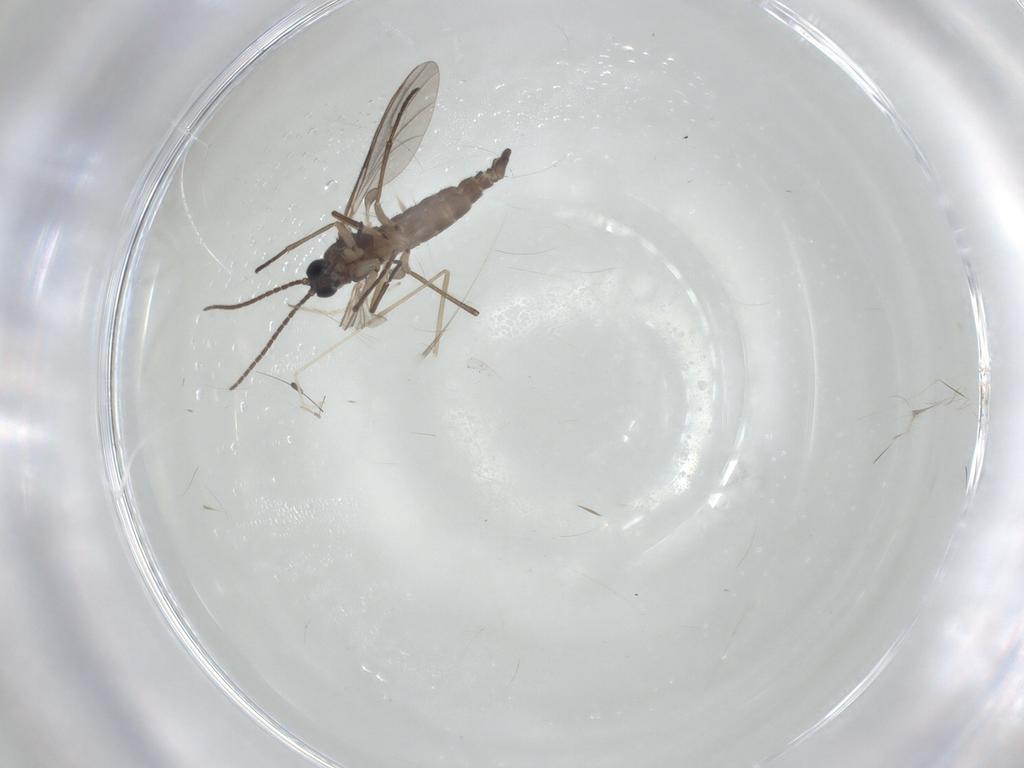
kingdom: Animalia
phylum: Arthropoda
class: Insecta
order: Diptera
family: Sciaridae
